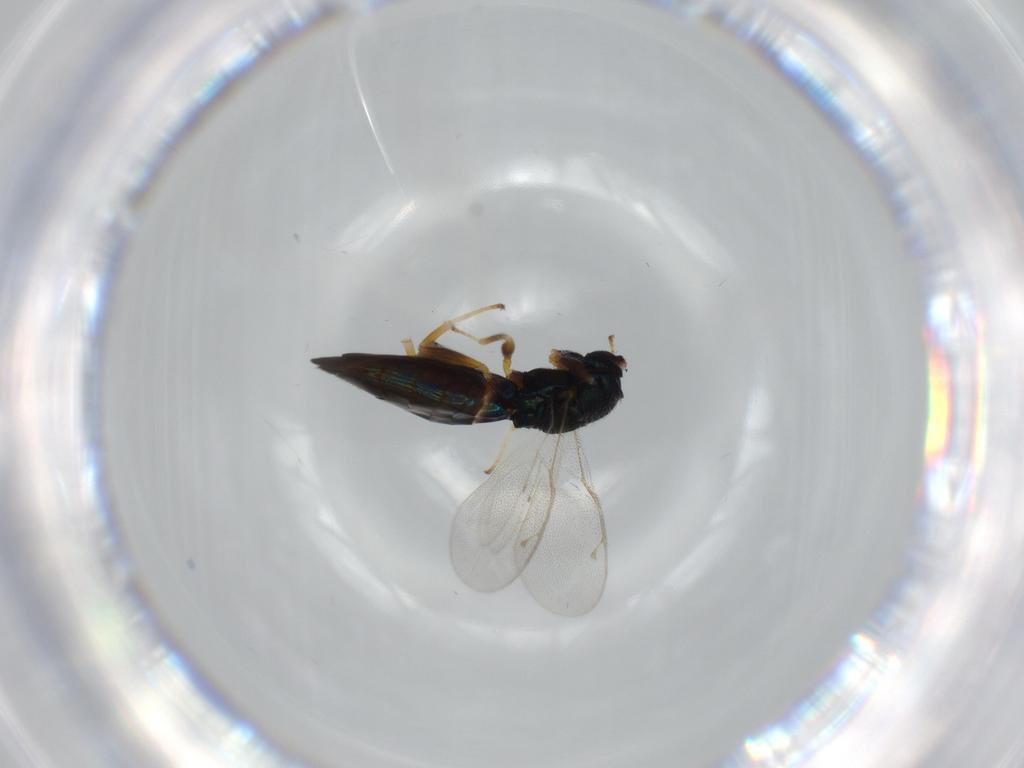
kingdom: Animalia
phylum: Arthropoda
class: Insecta
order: Hymenoptera
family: Pteromalidae
